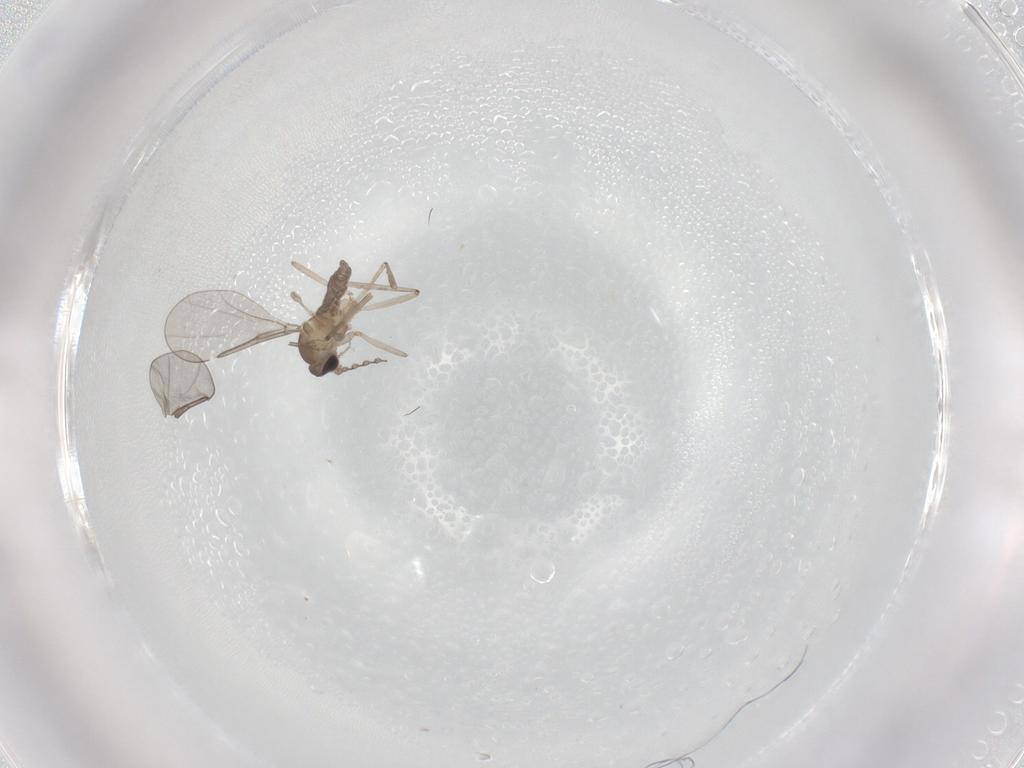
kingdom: Animalia
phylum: Arthropoda
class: Insecta
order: Diptera
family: Cecidomyiidae
